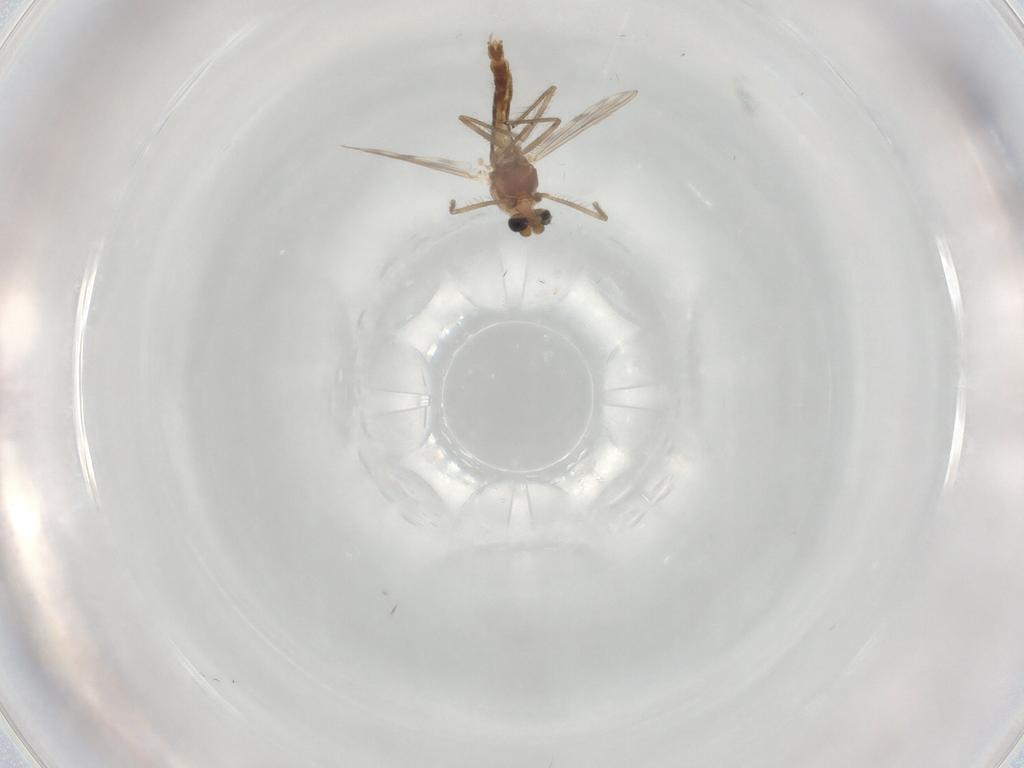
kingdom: Animalia
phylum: Arthropoda
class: Insecta
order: Diptera
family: Chironomidae
